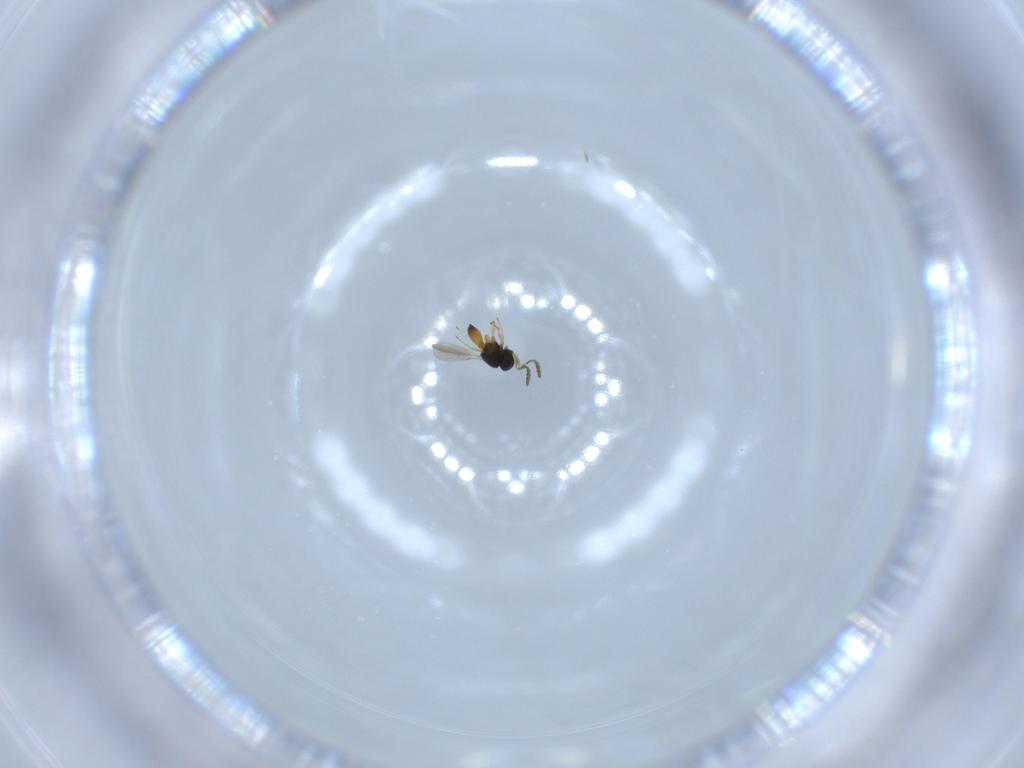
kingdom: Animalia
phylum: Arthropoda
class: Insecta
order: Hymenoptera
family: Scelionidae
